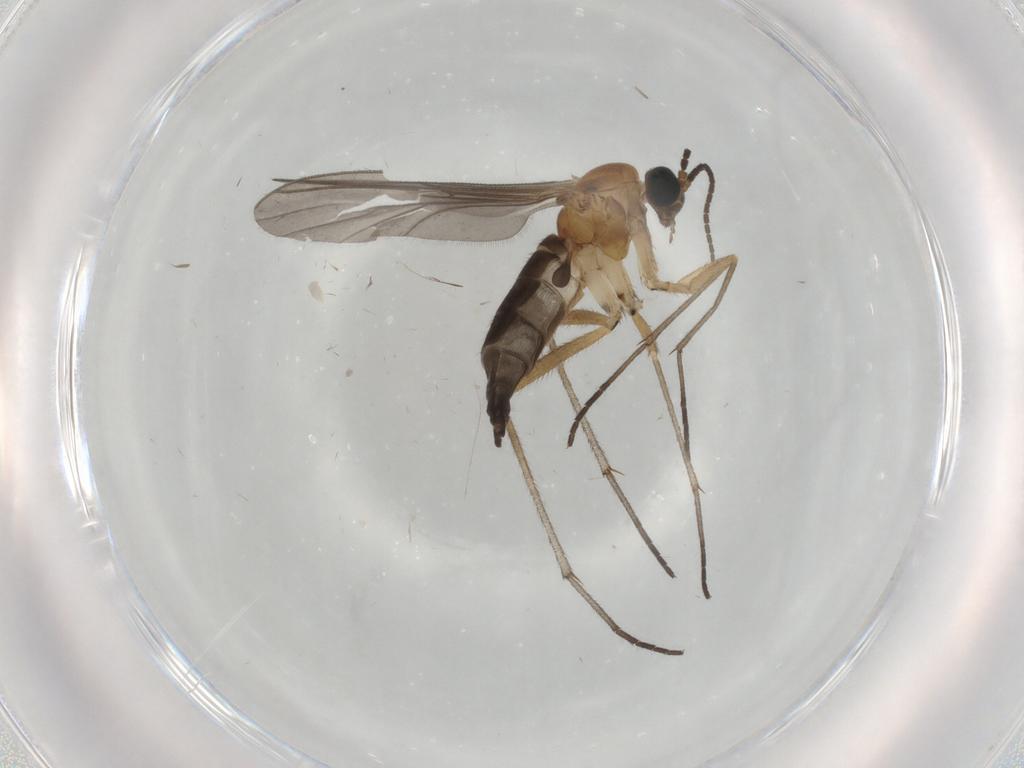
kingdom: Animalia
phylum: Arthropoda
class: Insecta
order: Diptera
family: Sciaridae
